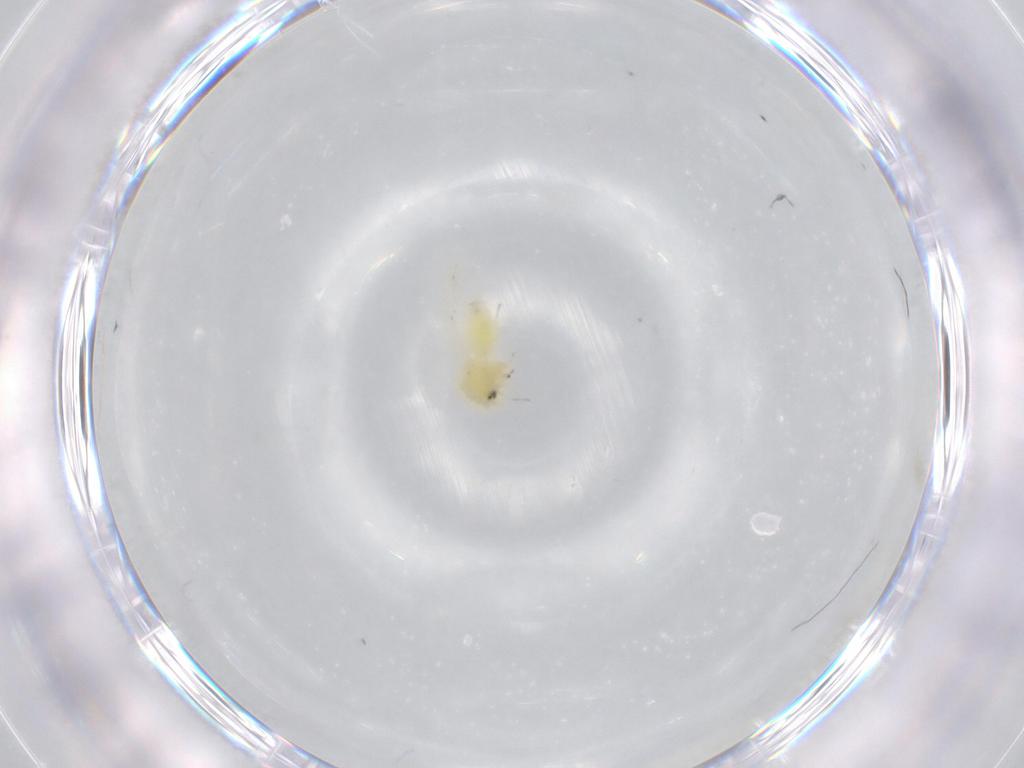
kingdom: Animalia
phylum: Arthropoda
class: Insecta
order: Hemiptera
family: Aleyrodidae
